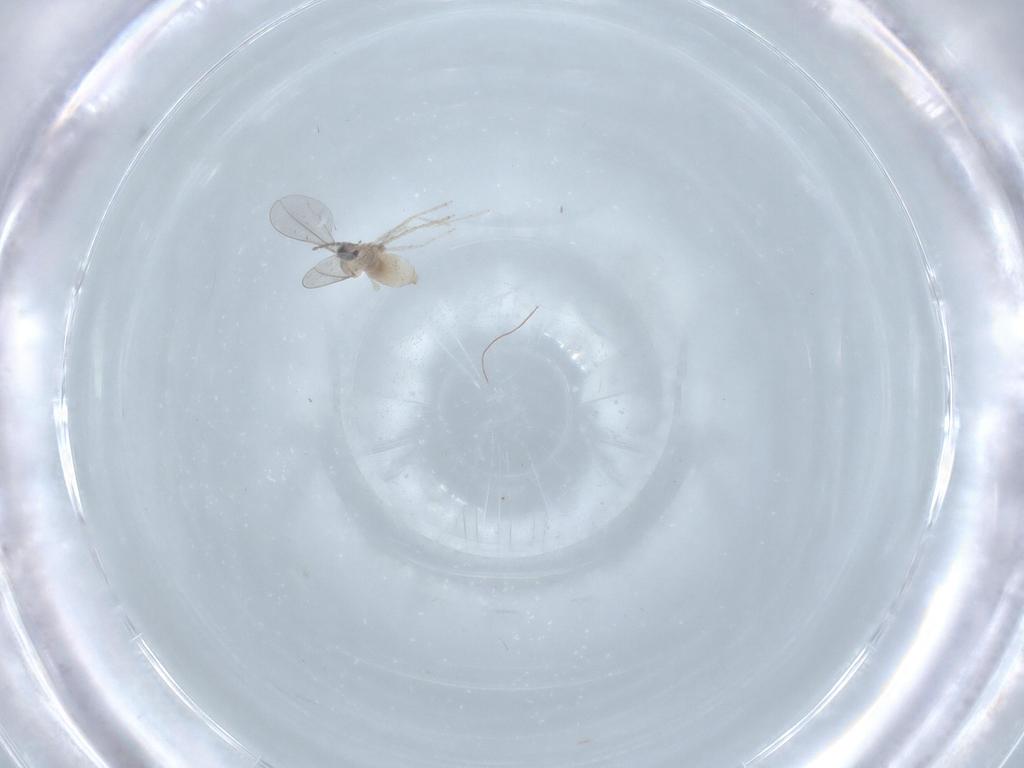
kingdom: Animalia
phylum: Arthropoda
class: Insecta
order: Diptera
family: Cecidomyiidae
